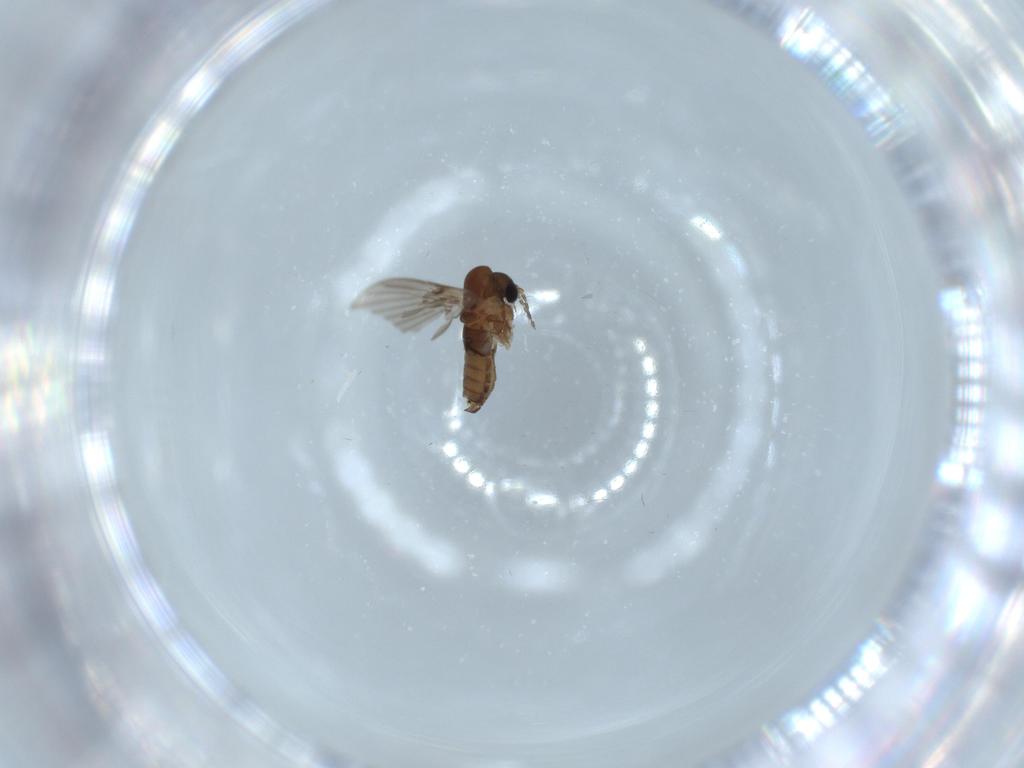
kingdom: Animalia
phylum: Arthropoda
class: Insecta
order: Diptera
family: Psychodidae
